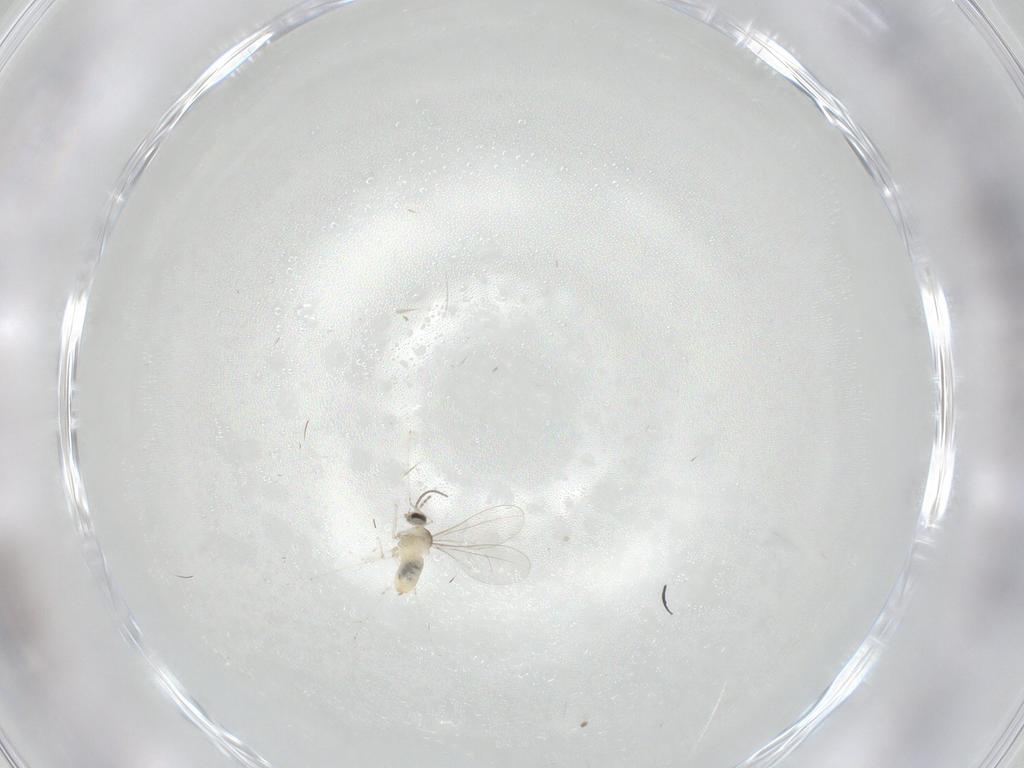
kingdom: Animalia
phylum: Arthropoda
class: Insecta
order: Diptera
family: Cecidomyiidae
